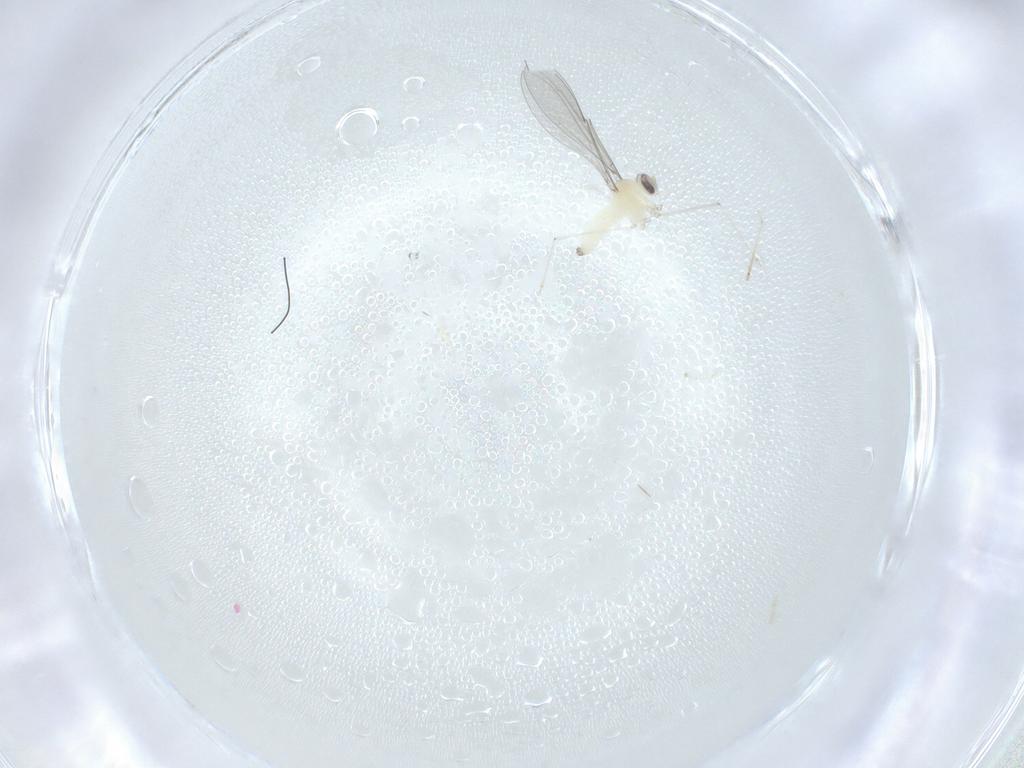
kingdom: Animalia
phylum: Arthropoda
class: Insecta
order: Diptera
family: Cecidomyiidae
